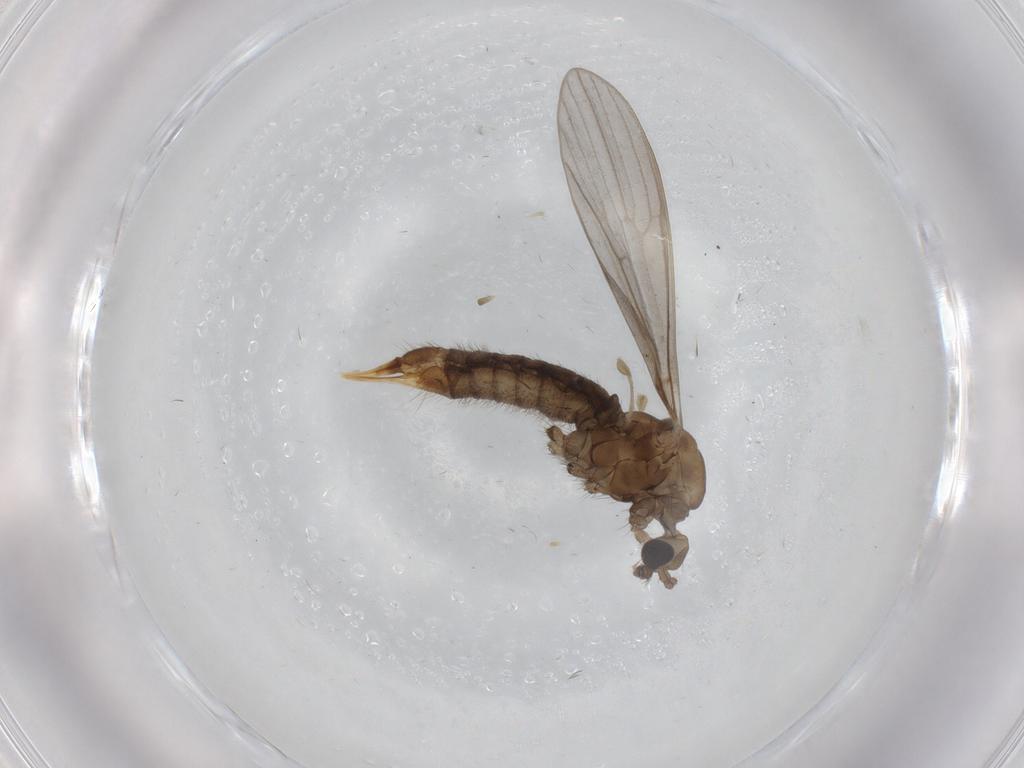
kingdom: Animalia
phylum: Arthropoda
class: Insecta
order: Diptera
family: Limoniidae
